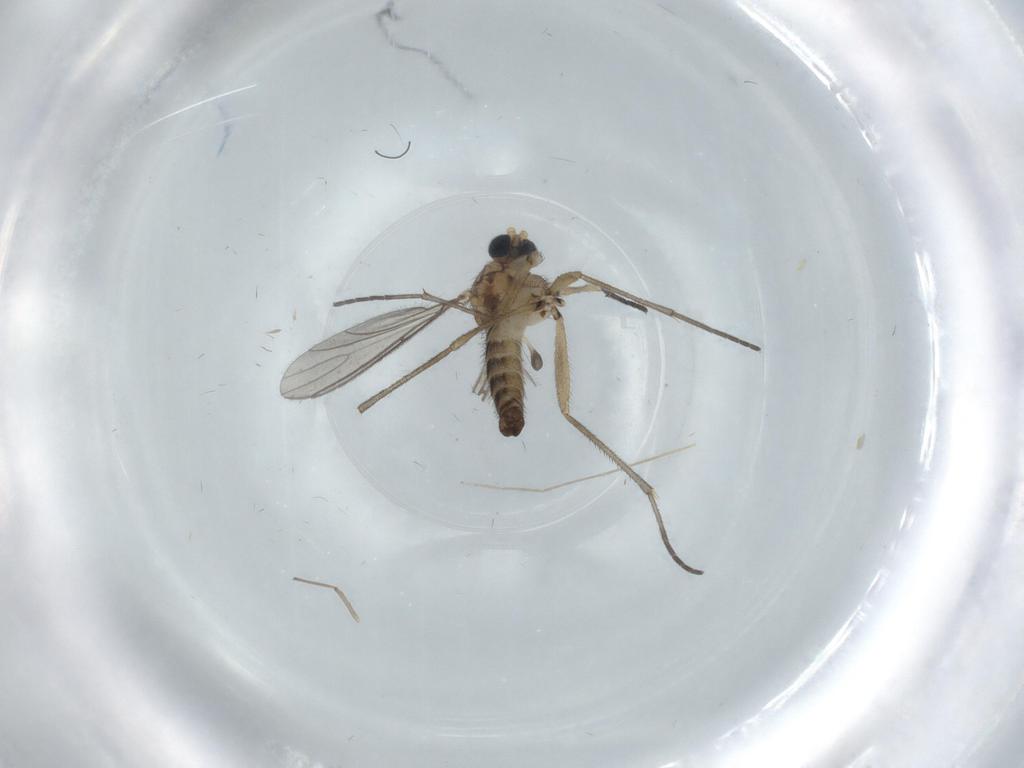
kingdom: Animalia
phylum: Arthropoda
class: Insecta
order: Diptera
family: Sciaridae
